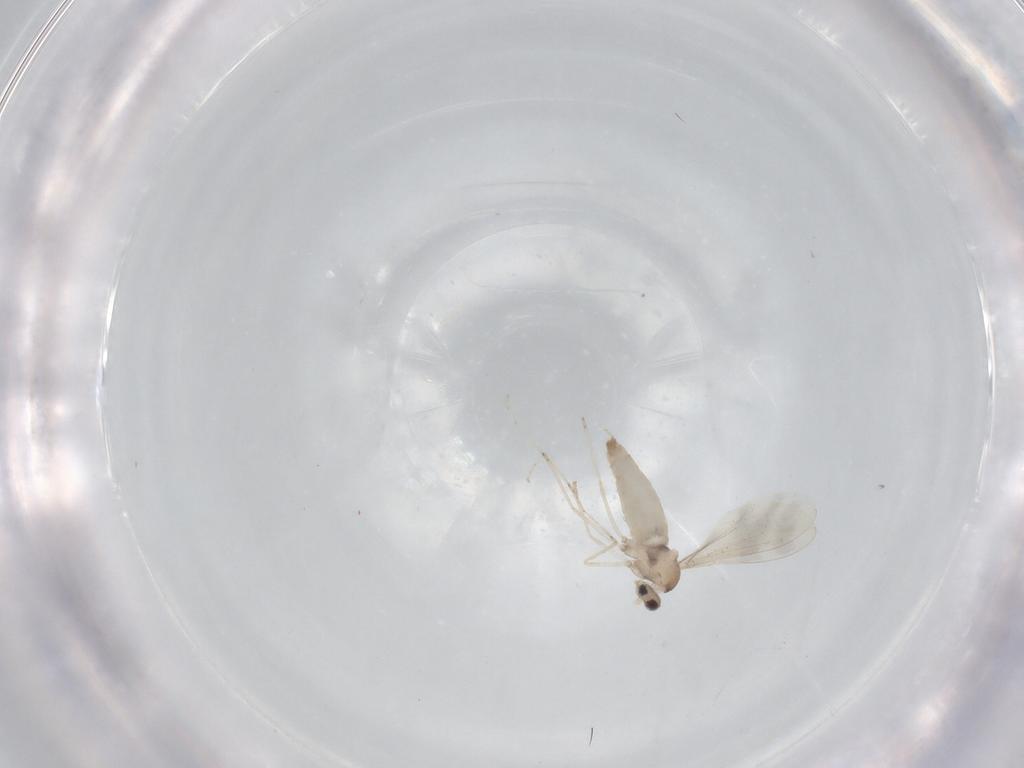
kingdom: Animalia
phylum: Arthropoda
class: Insecta
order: Diptera
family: Cecidomyiidae
